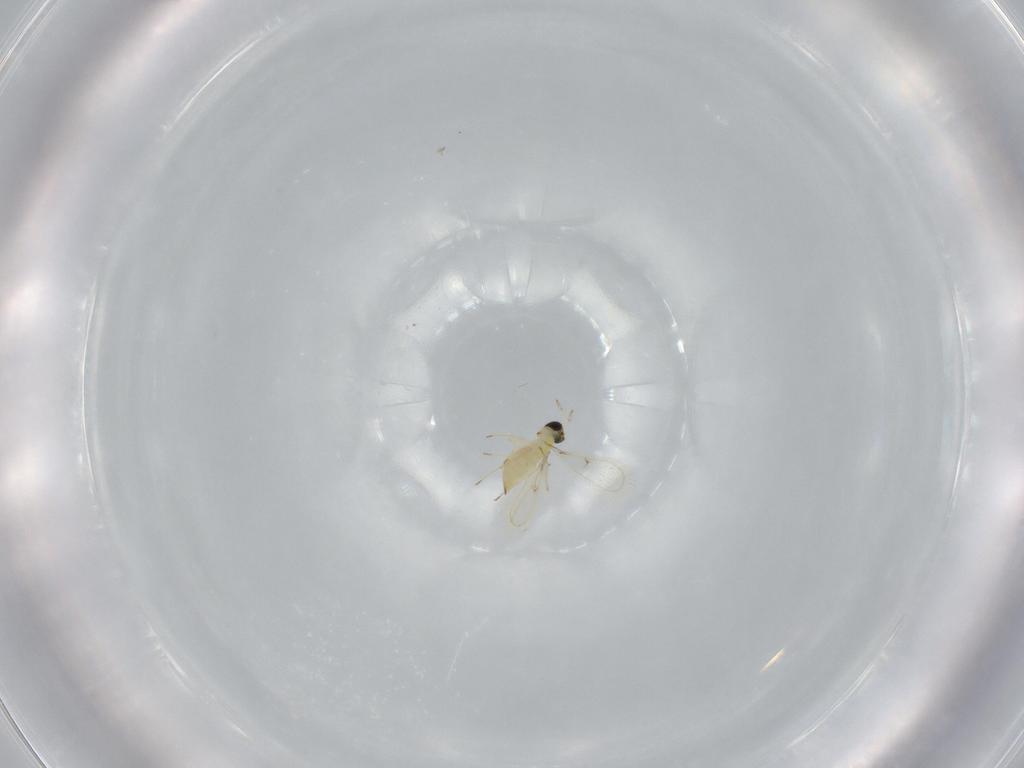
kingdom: Animalia
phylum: Arthropoda
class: Insecta
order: Hymenoptera
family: Trichogrammatidae
